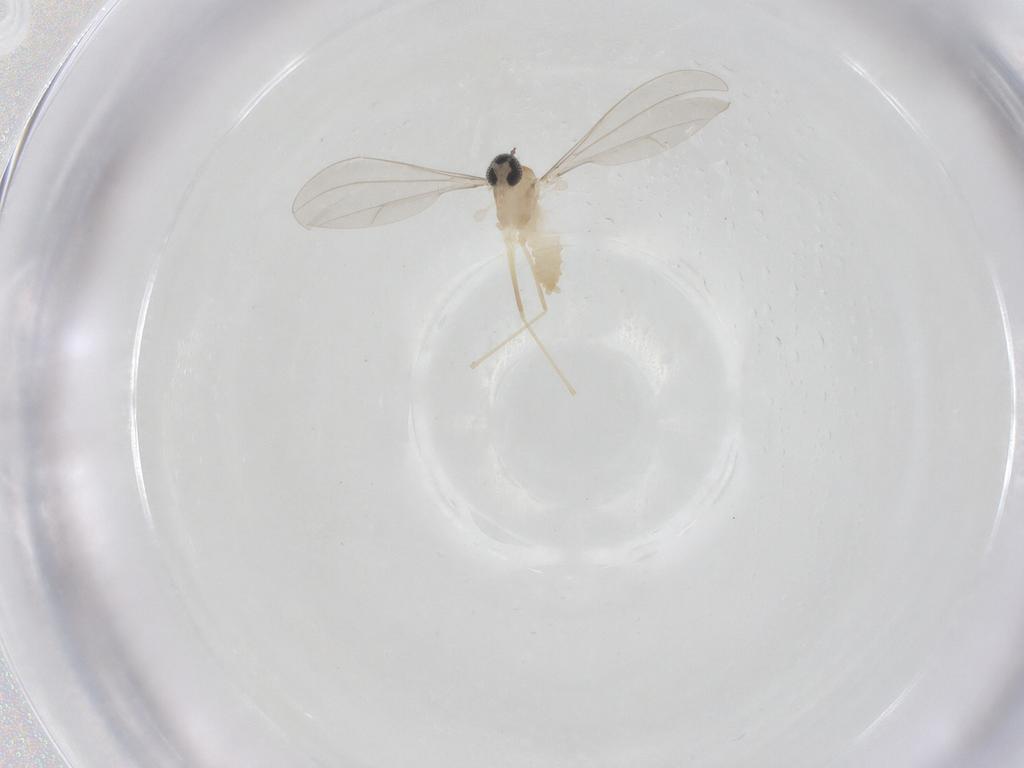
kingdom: Animalia
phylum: Arthropoda
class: Insecta
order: Diptera
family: Cecidomyiidae
